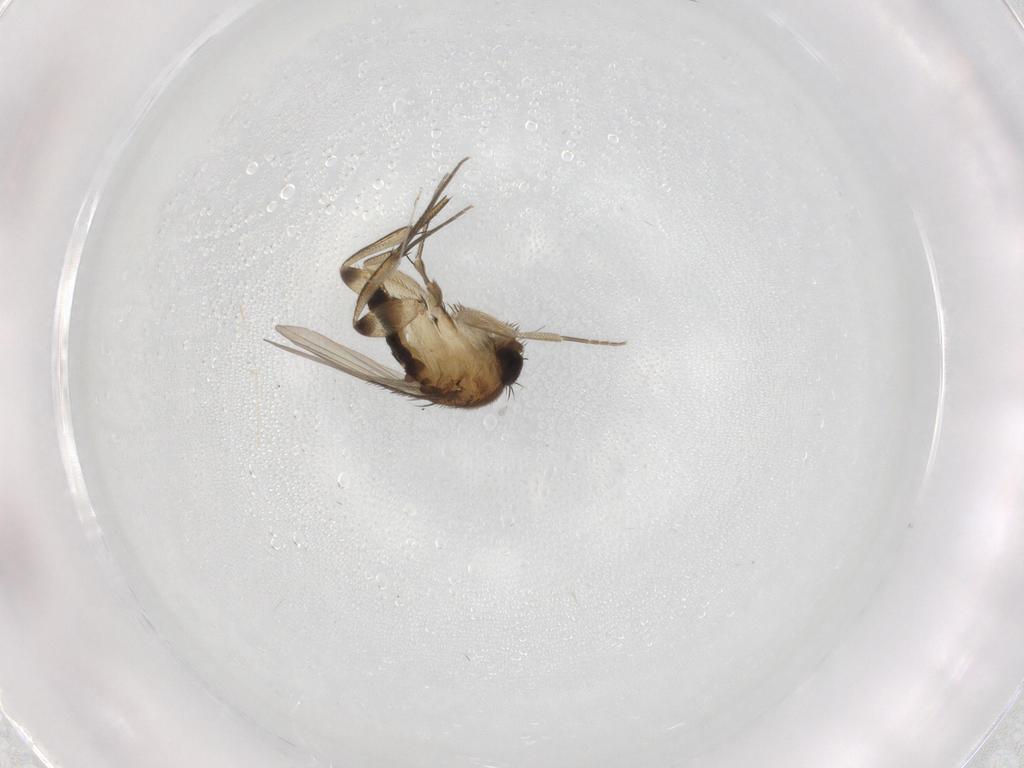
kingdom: Animalia
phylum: Arthropoda
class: Insecta
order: Diptera
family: Phoridae
